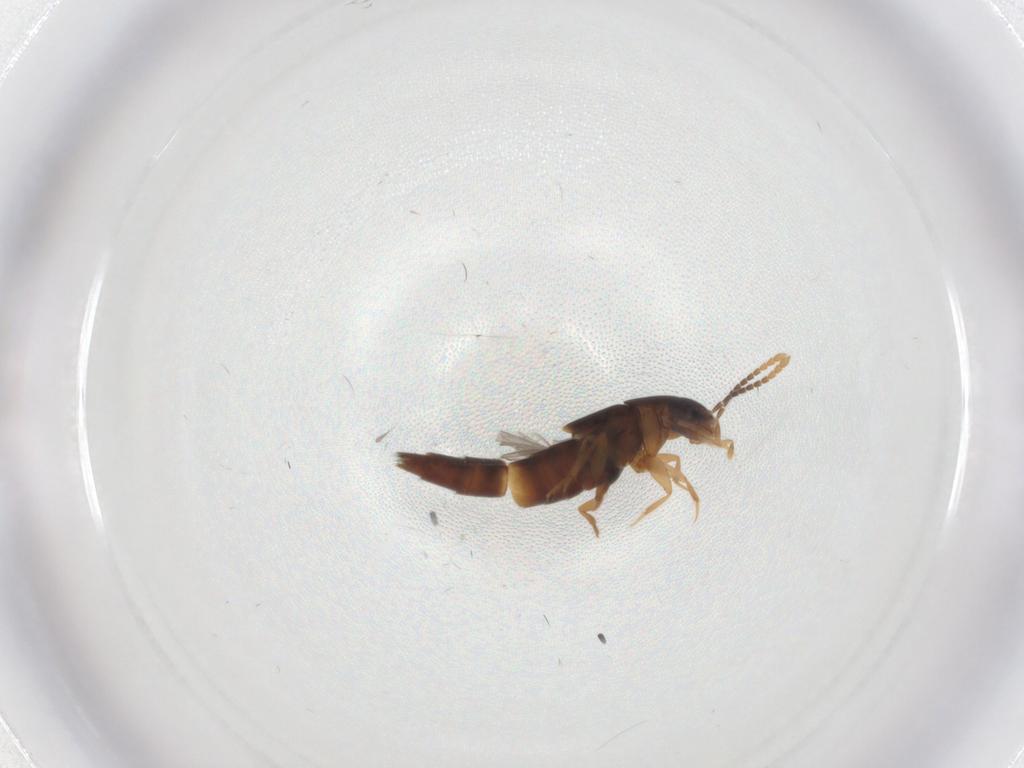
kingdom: Animalia
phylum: Arthropoda
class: Insecta
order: Coleoptera
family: Chrysomelidae
